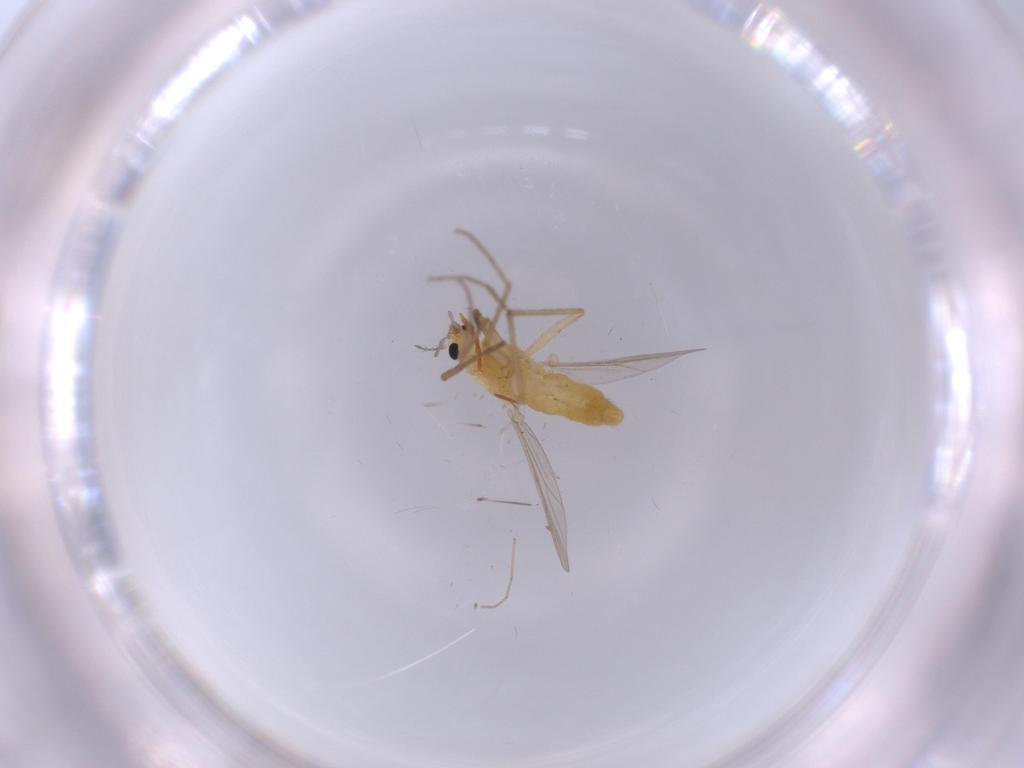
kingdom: Animalia
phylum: Arthropoda
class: Insecta
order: Diptera
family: Chironomidae
